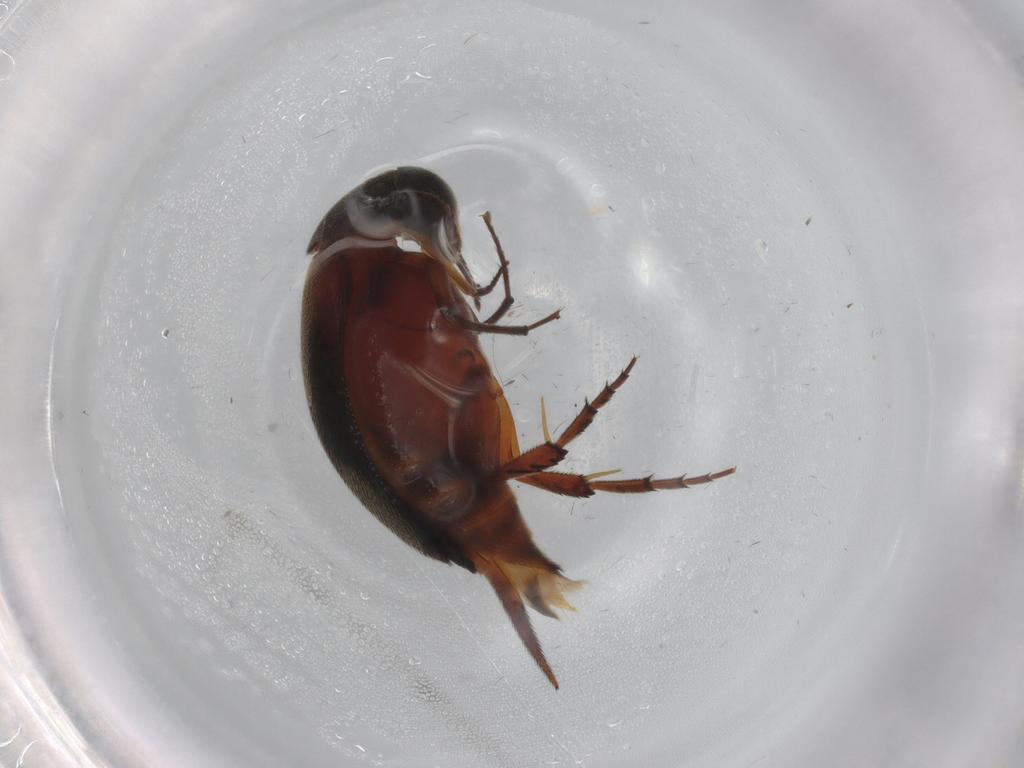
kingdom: Animalia
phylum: Arthropoda
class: Insecta
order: Coleoptera
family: Mordellidae
